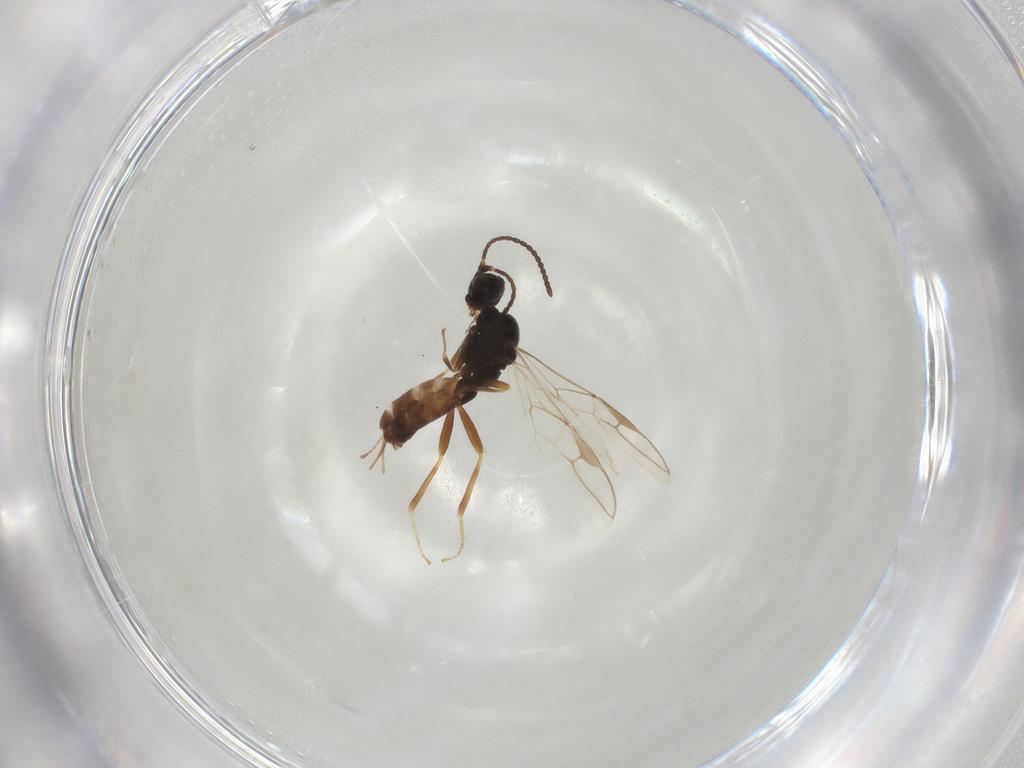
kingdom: Animalia
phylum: Arthropoda
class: Insecta
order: Hymenoptera
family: Braconidae
